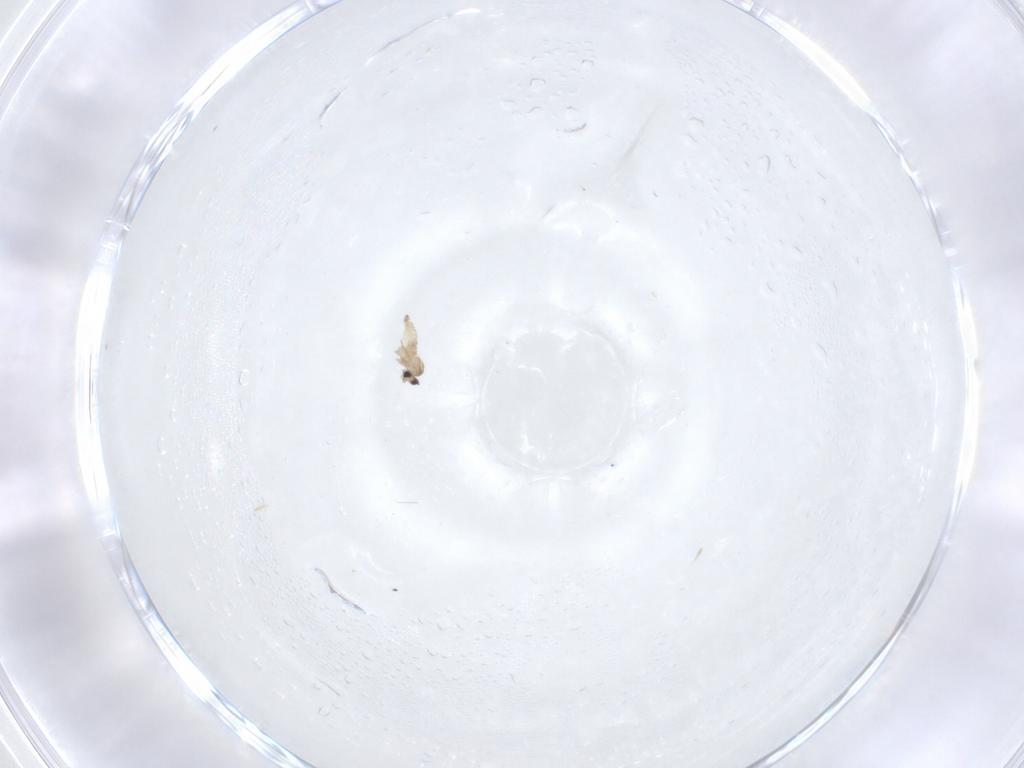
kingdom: Animalia
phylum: Arthropoda
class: Insecta
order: Diptera
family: Cecidomyiidae
